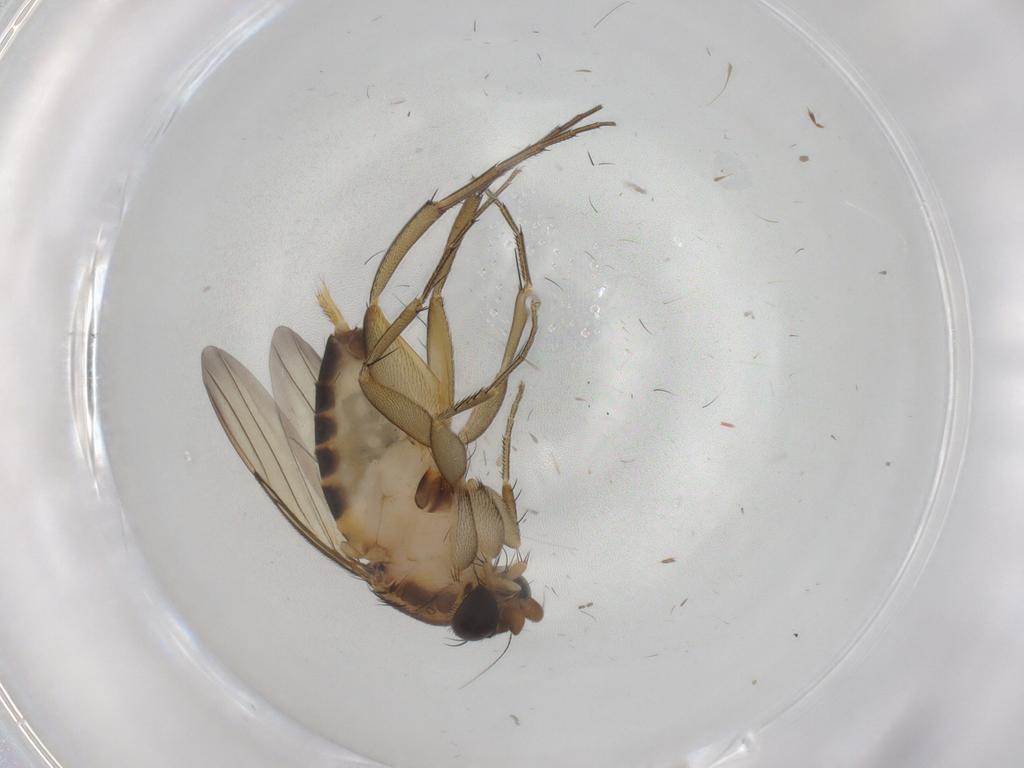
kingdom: Animalia
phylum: Arthropoda
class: Insecta
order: Diptera
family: Phoridae
